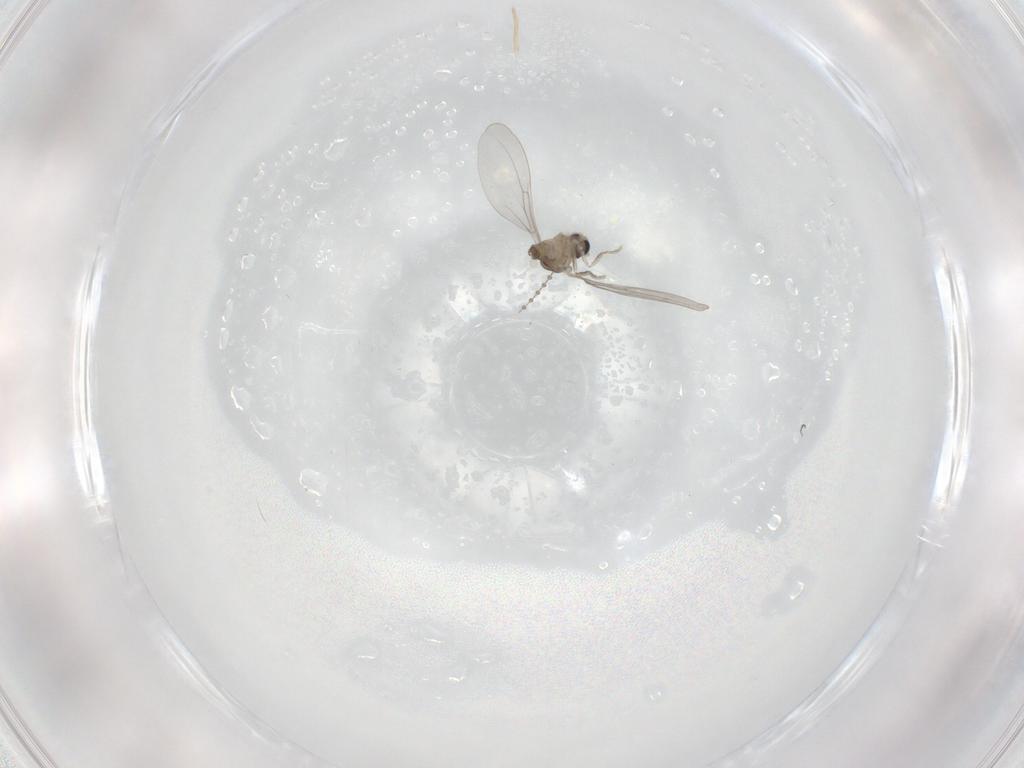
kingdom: Animalia
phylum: Arthropoda
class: Insecta
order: Diptera
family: Cecidomyiidae
